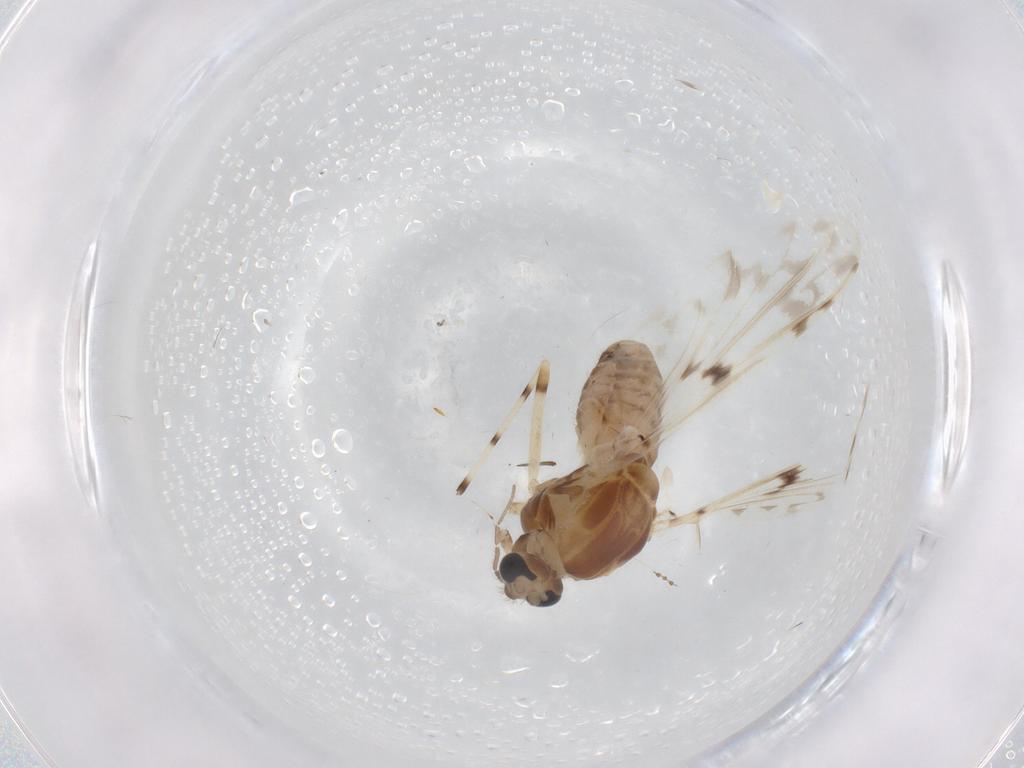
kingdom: Animalia
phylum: Arthropoda
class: Insecta
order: Diptera
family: Chironomidae
